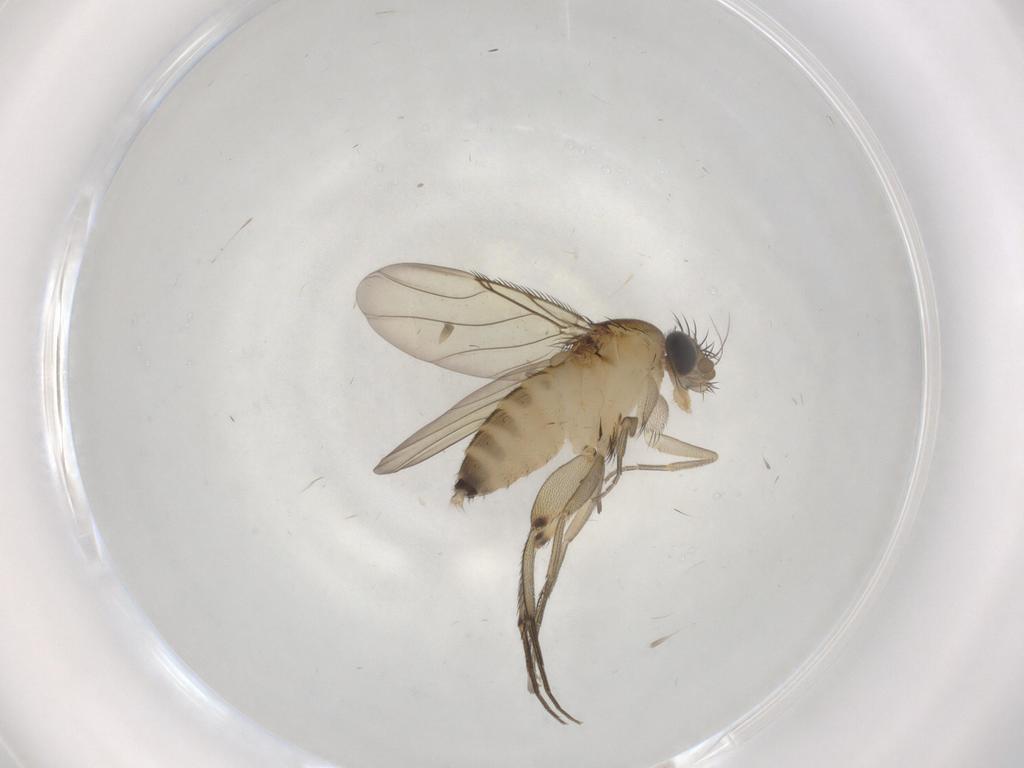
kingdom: Animalia
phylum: Arthropoda
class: Insecta
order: Diptera
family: Phoridae
